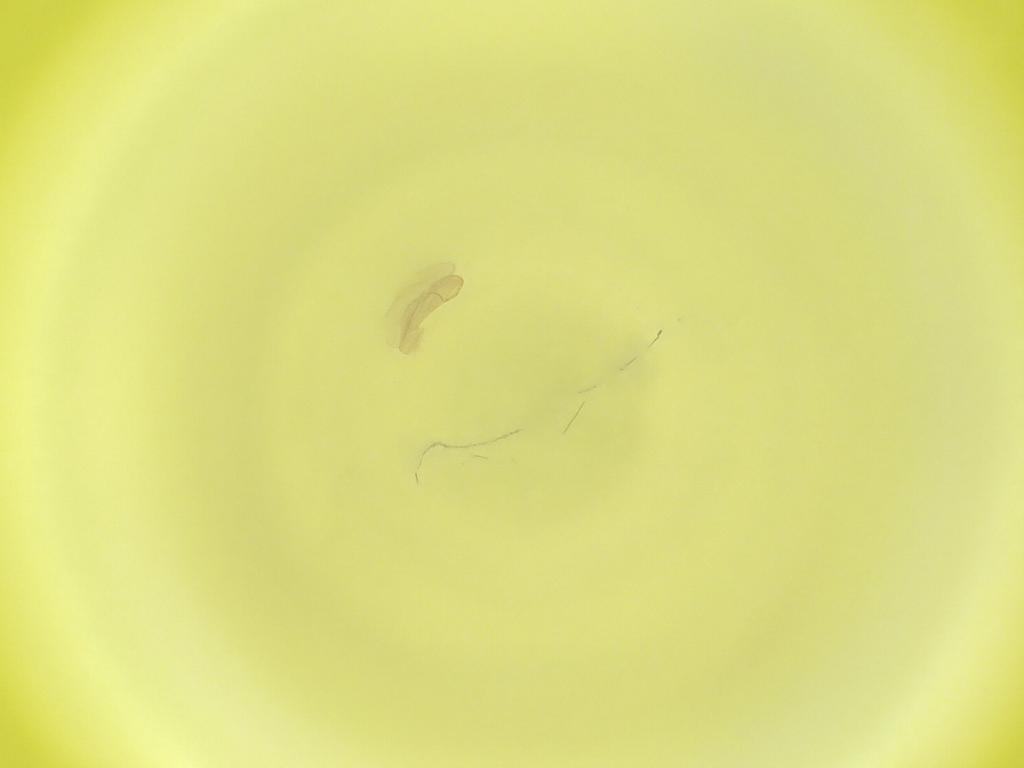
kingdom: Animalia
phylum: Arthropoda
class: Insecta
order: Diptera
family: Cecidomyiidae
